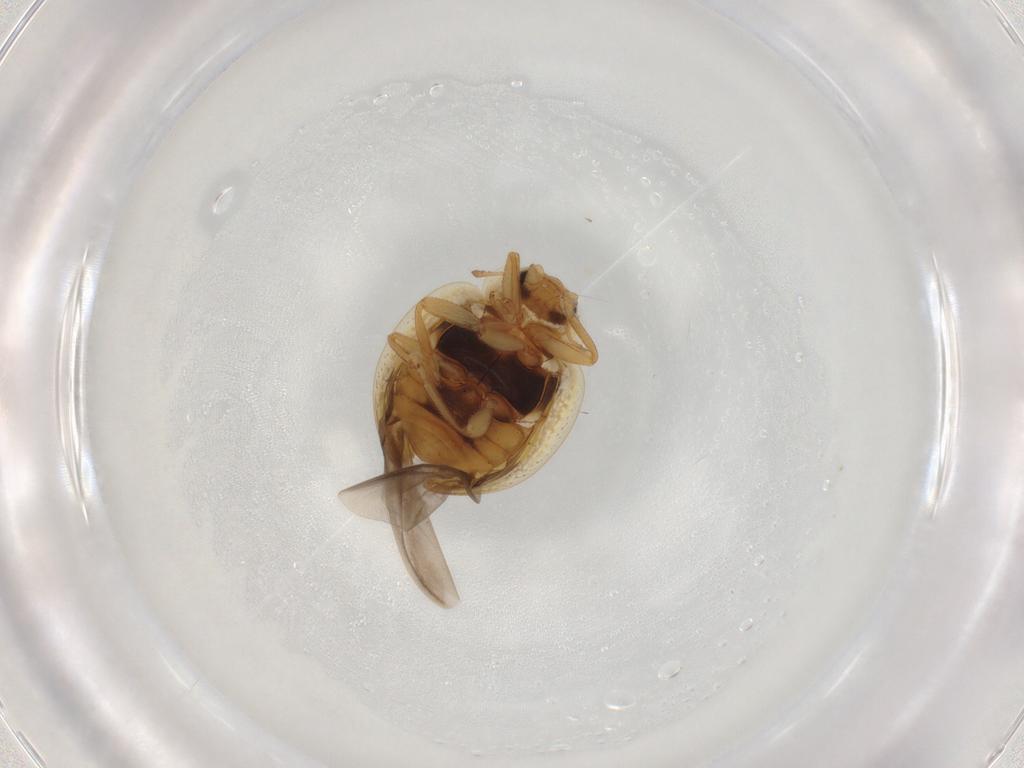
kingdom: Animalia
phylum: Arthropoda
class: Insecta
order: Coleoptera
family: Coccinellidae
